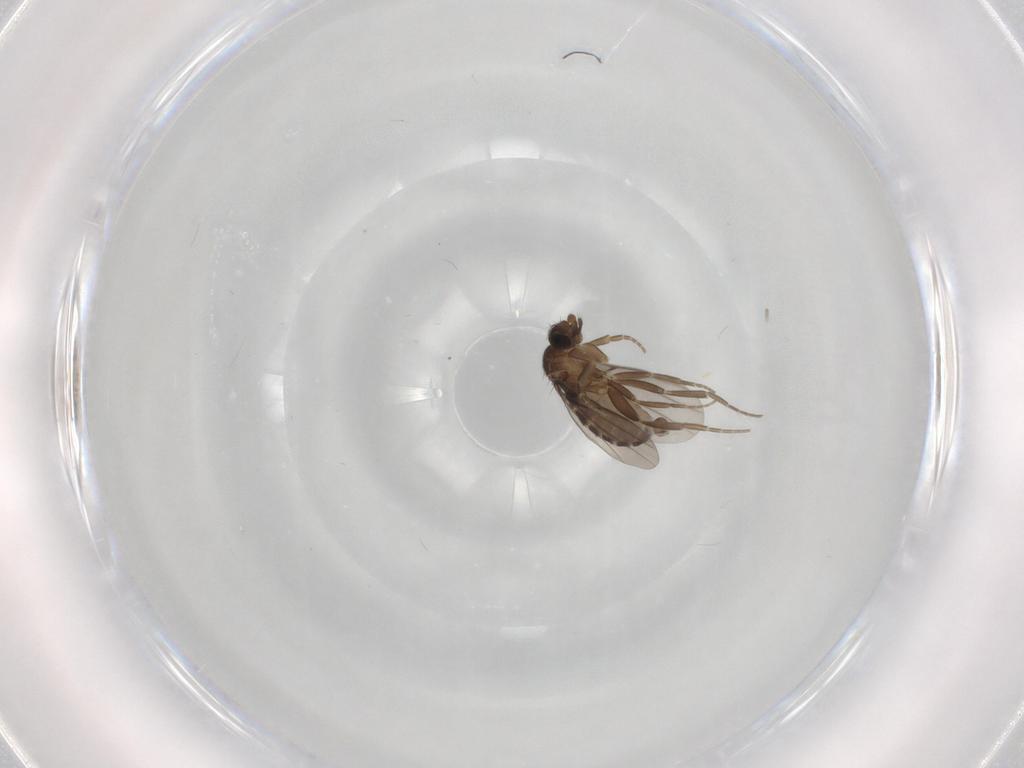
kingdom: Animalia
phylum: Arthropoda
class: Insecta
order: Diptera
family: Phoridae
